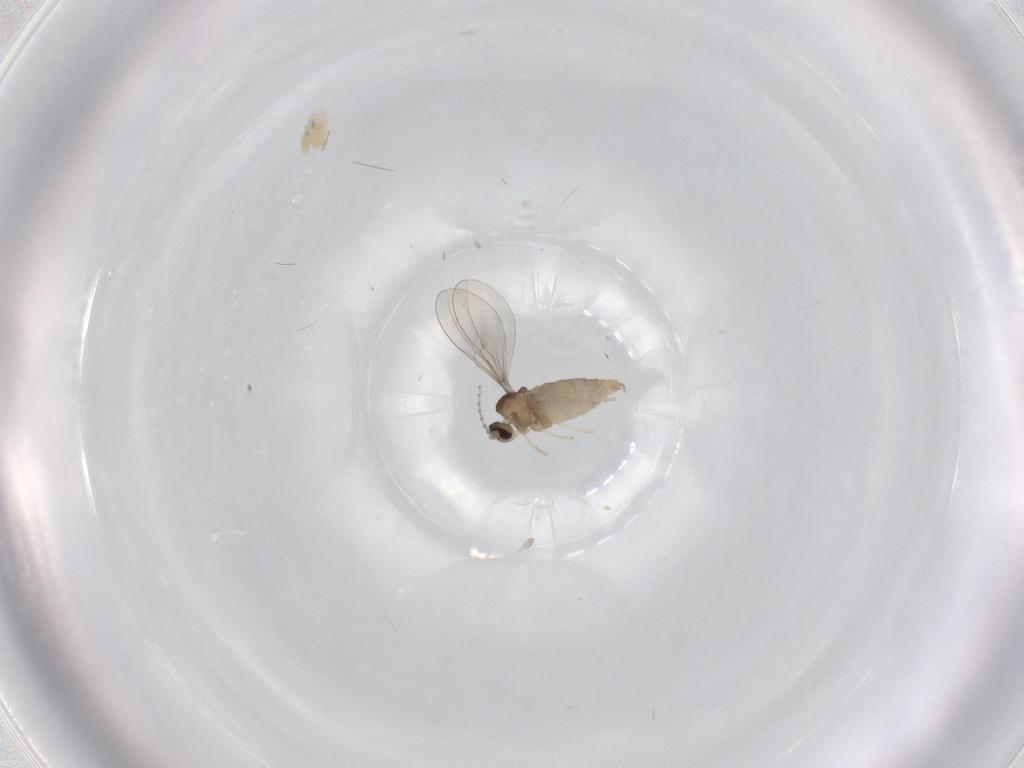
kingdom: Animalia
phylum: Arthropoda
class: Insecta
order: Diptera
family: Cecidomyiidae
